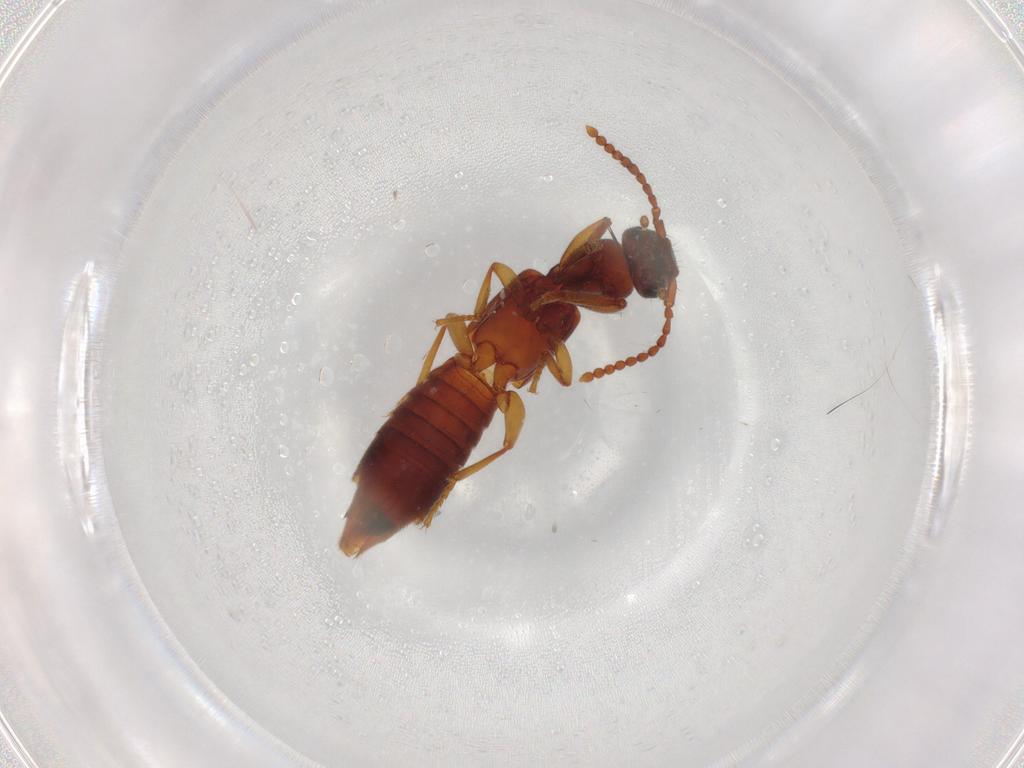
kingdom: Animalia
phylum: Arthropoda
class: Insecta
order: Coleoptera
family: Staphylinidae
